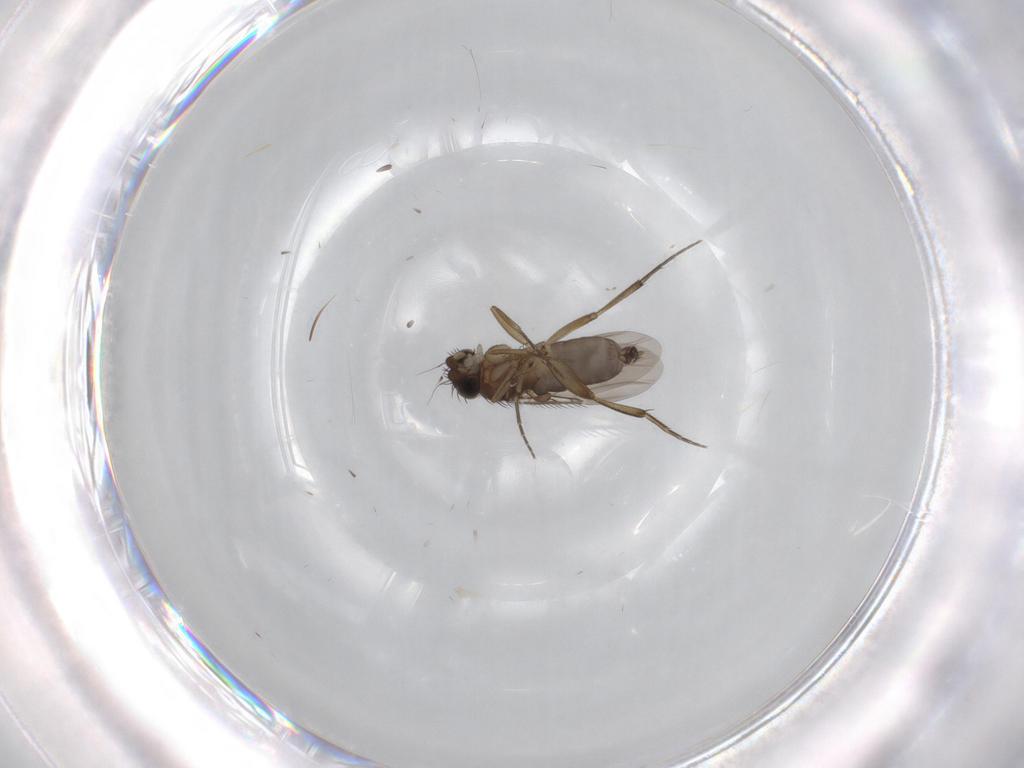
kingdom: Animalia
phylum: Arthropoda
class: Insecta
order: Diptera
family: Phoridae
